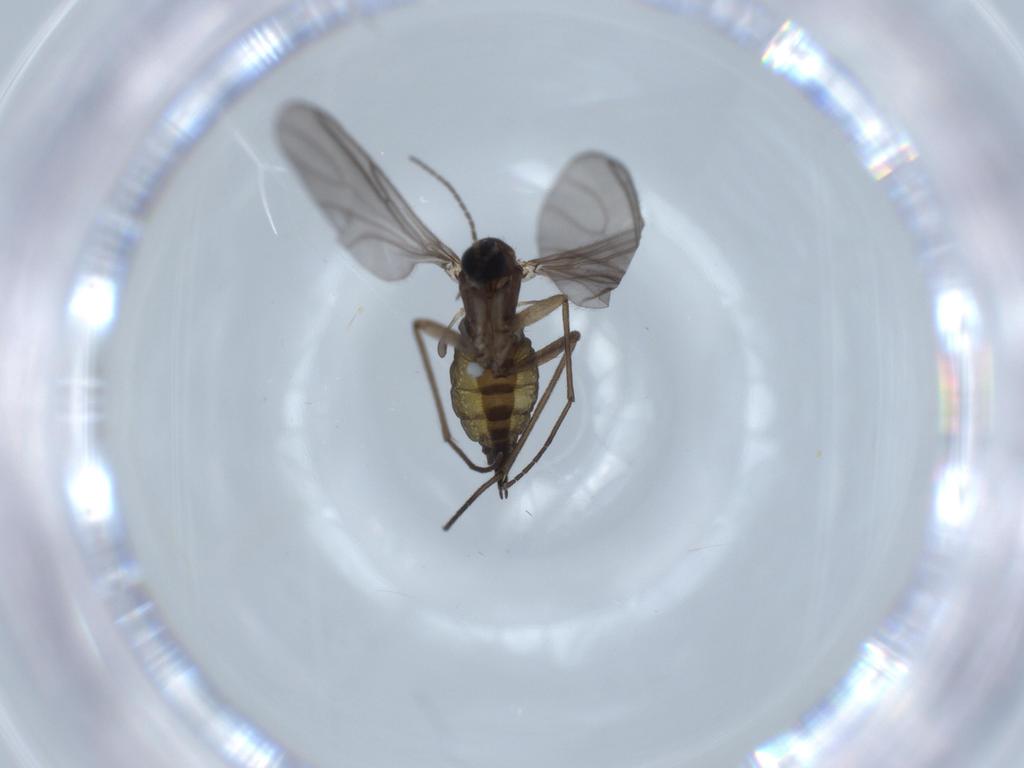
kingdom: Animalia
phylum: Arthropoda
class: Insecta
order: Diptera
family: Sciaridae
